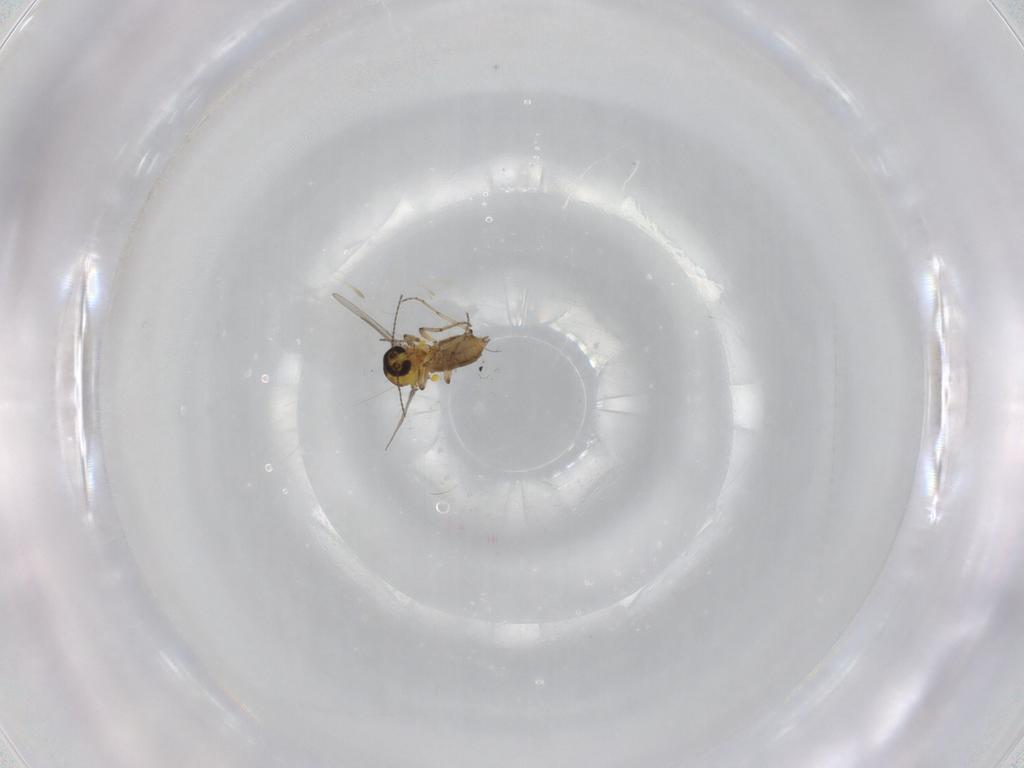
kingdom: Animalia
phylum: Arthropoda
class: Insecta
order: Diptera
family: Ceratopogonidae
